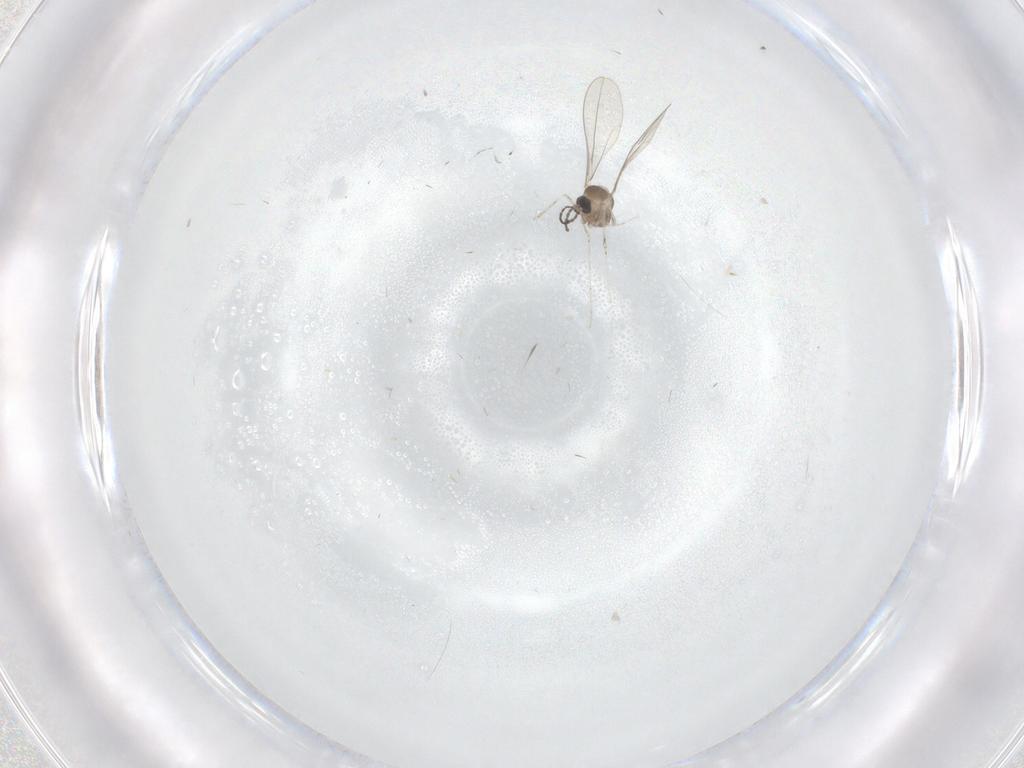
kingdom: Animalia
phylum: Arthropoda
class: Insecta
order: Diptera
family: Cecidomyiidae
